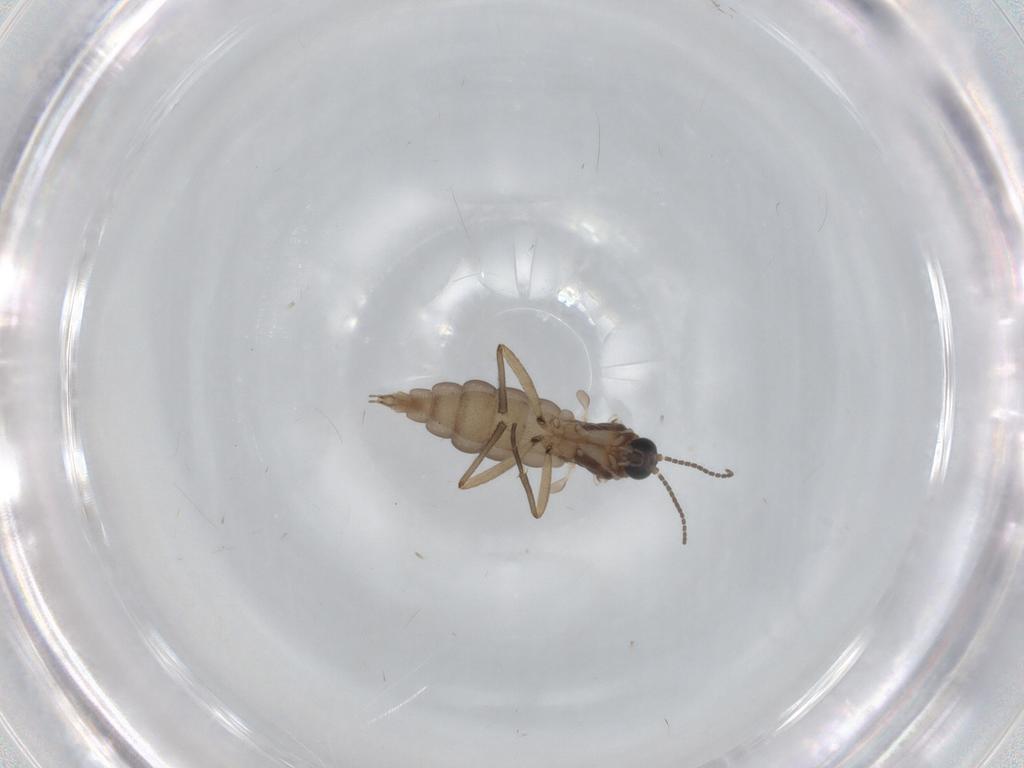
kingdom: Animalia
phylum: Arthropoda
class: Insecta
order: Diptera
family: Sciaridae
